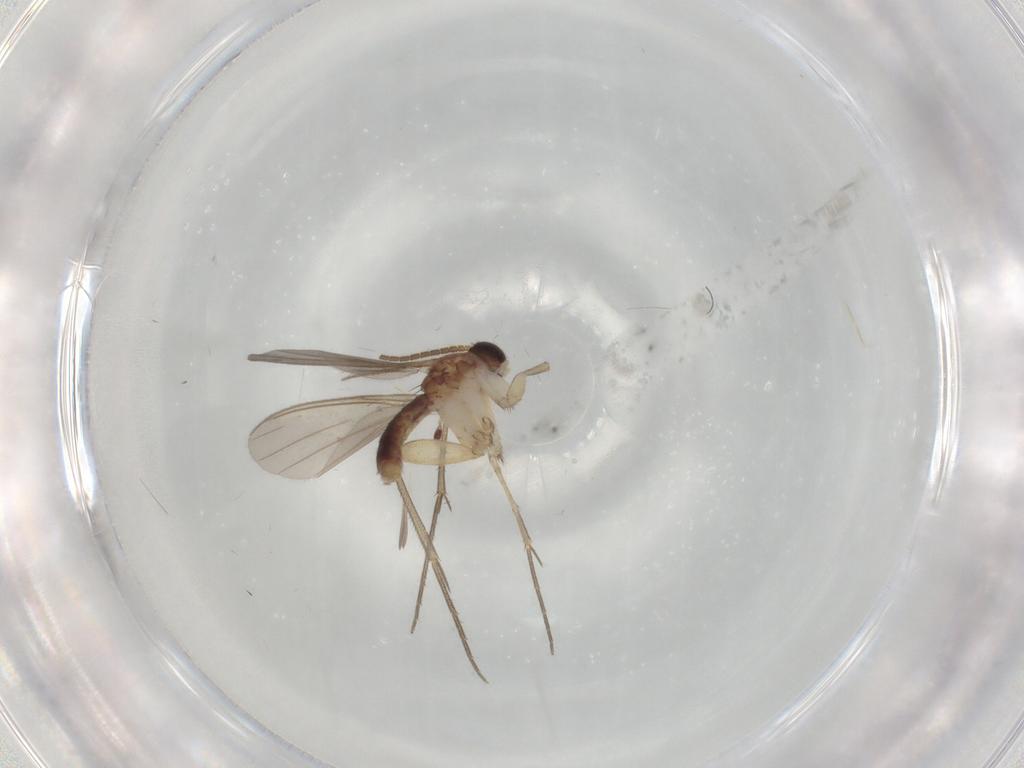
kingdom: Animalia
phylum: Arthropoda
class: Insecta
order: Diptera
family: Mycetophilidae
